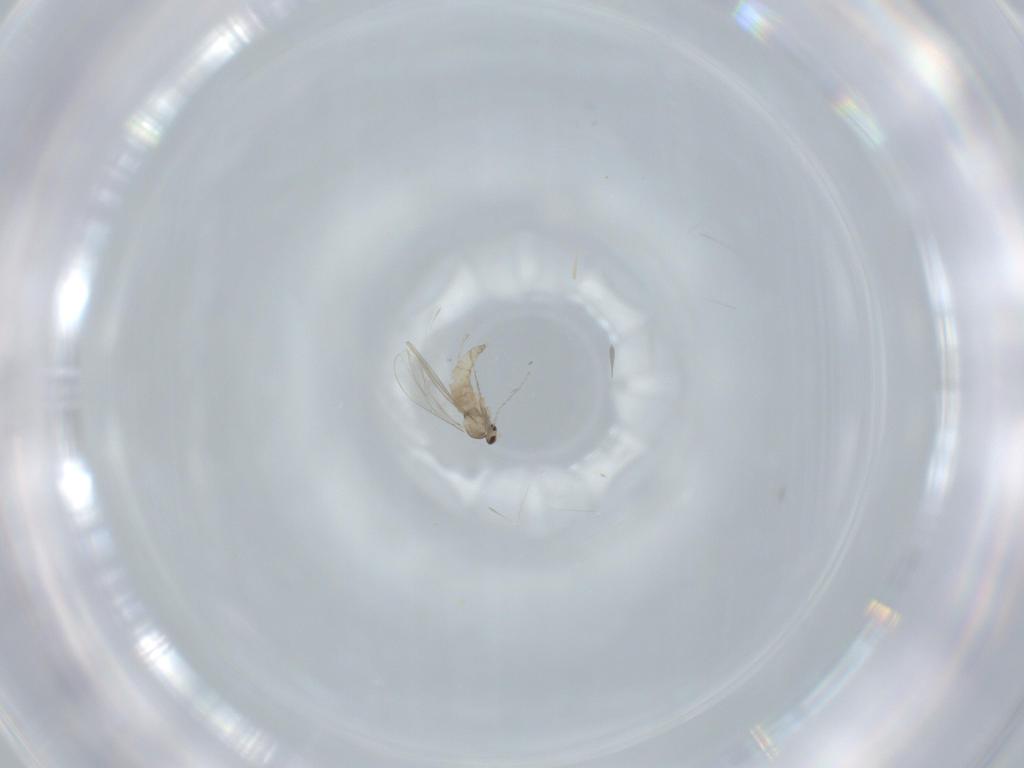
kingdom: Animalia
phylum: Arthropoda
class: Insecta
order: Diptera
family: Cecidomyiidae
